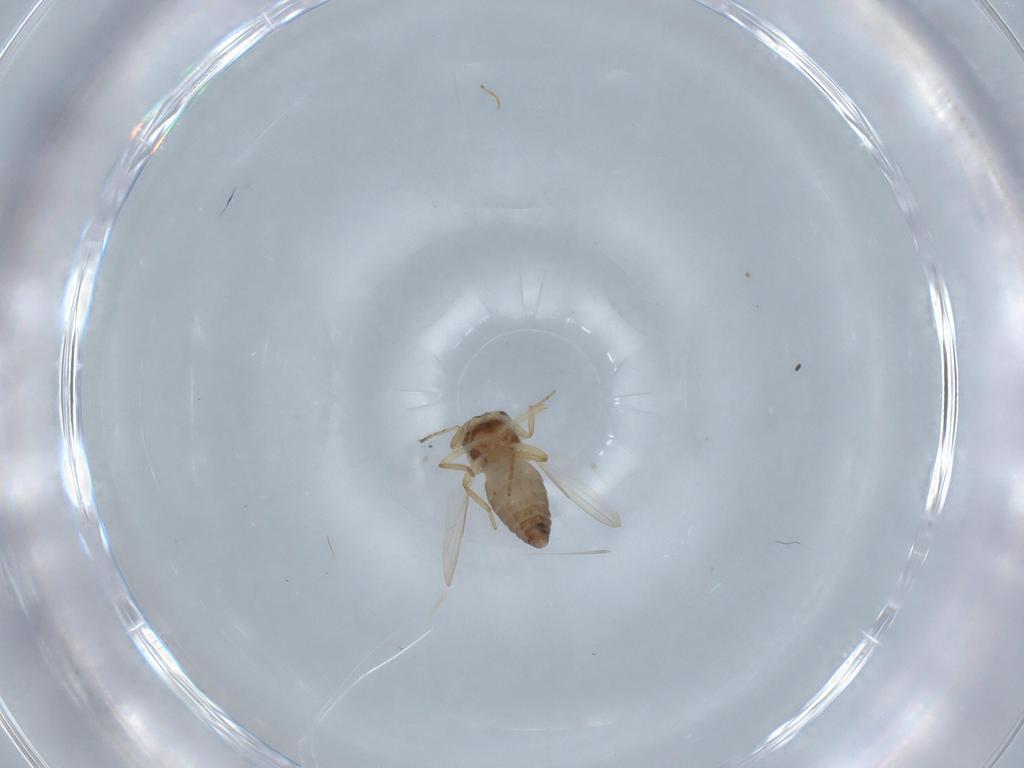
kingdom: Animalia
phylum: Arthropoda
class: Insecta
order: Diptera
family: Ceratopogonidae
